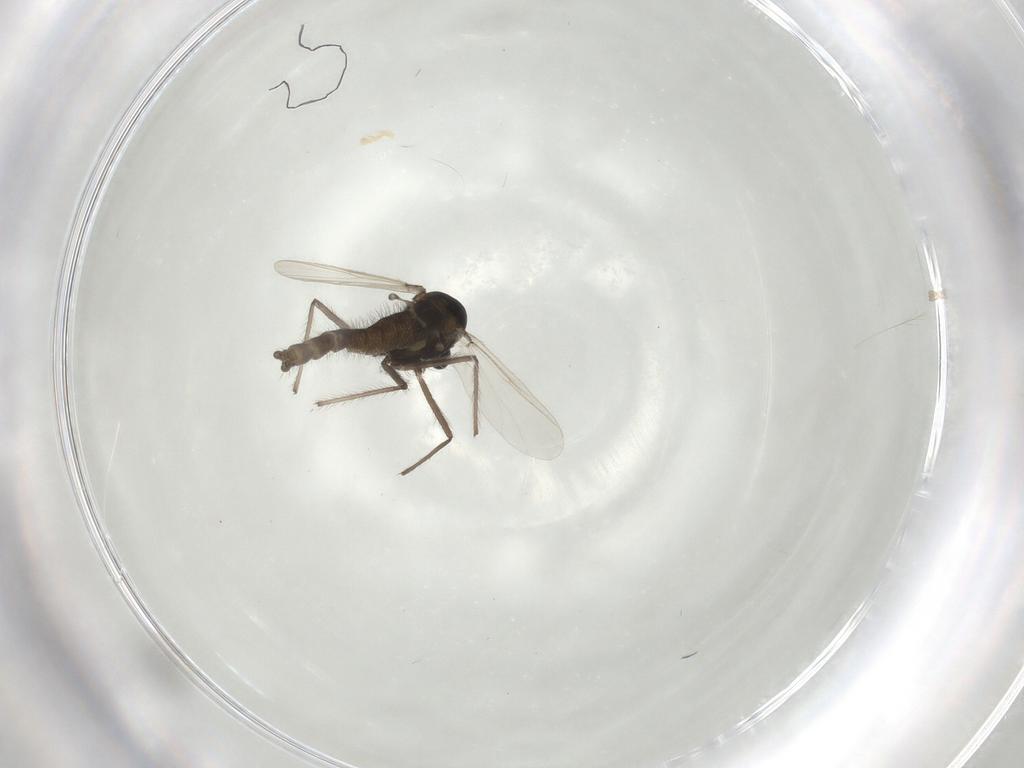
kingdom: Animalia
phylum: Arthropoda
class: Insecta
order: Diptera
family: Chironomidae
